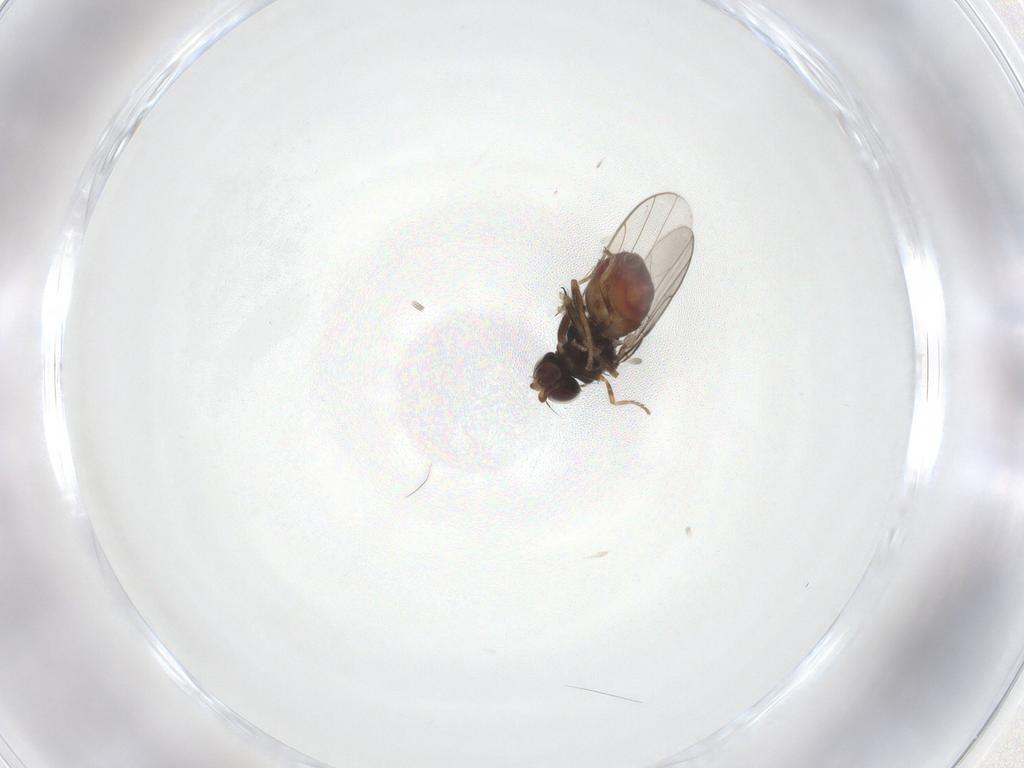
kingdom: Animalia
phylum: Arthropoda
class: Insecta
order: Diptera
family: Chloropidae
